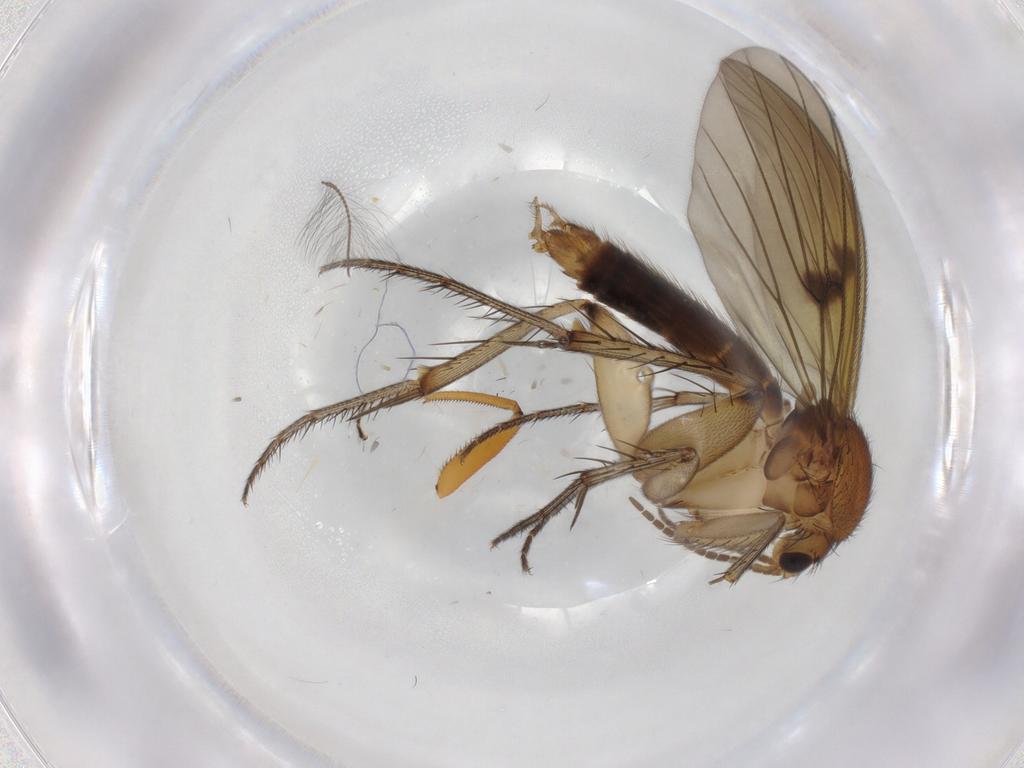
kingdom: Animalia
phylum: Arthropoda
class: Insecta
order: Diptera
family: Mycetophilidae
